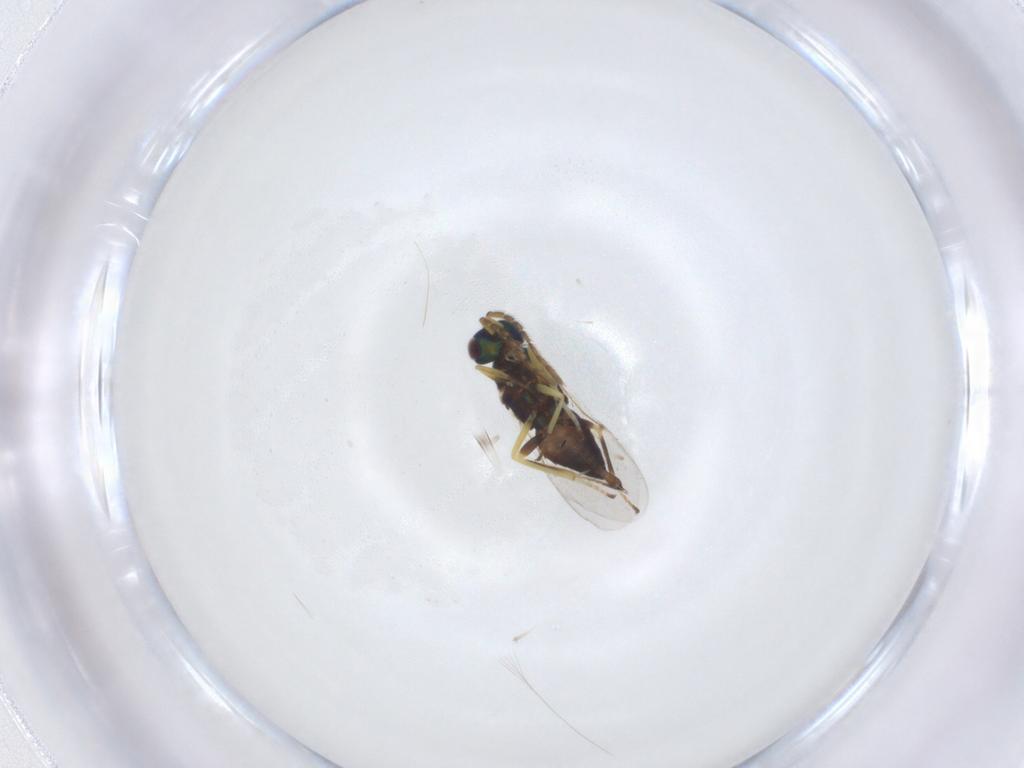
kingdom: Animalia
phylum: Arthropoda
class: Insecta
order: Hymenoptera
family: Encyrtidae
